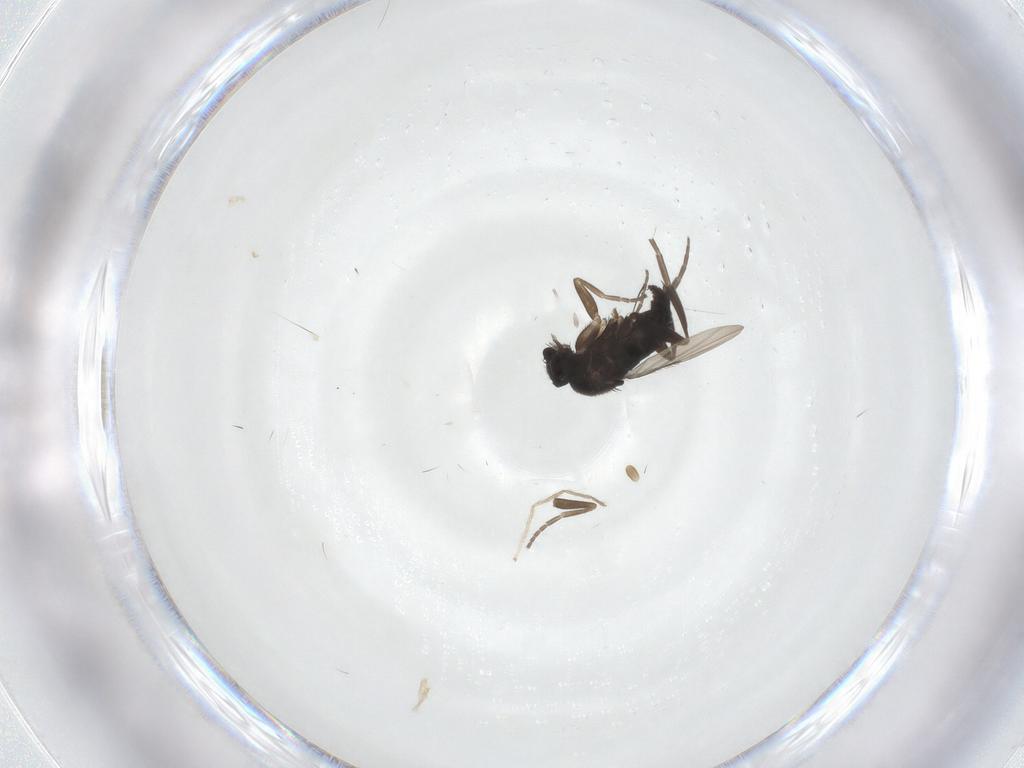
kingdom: Animalia
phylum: Arthropoda
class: Insecta
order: Diptera
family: Phoridae
